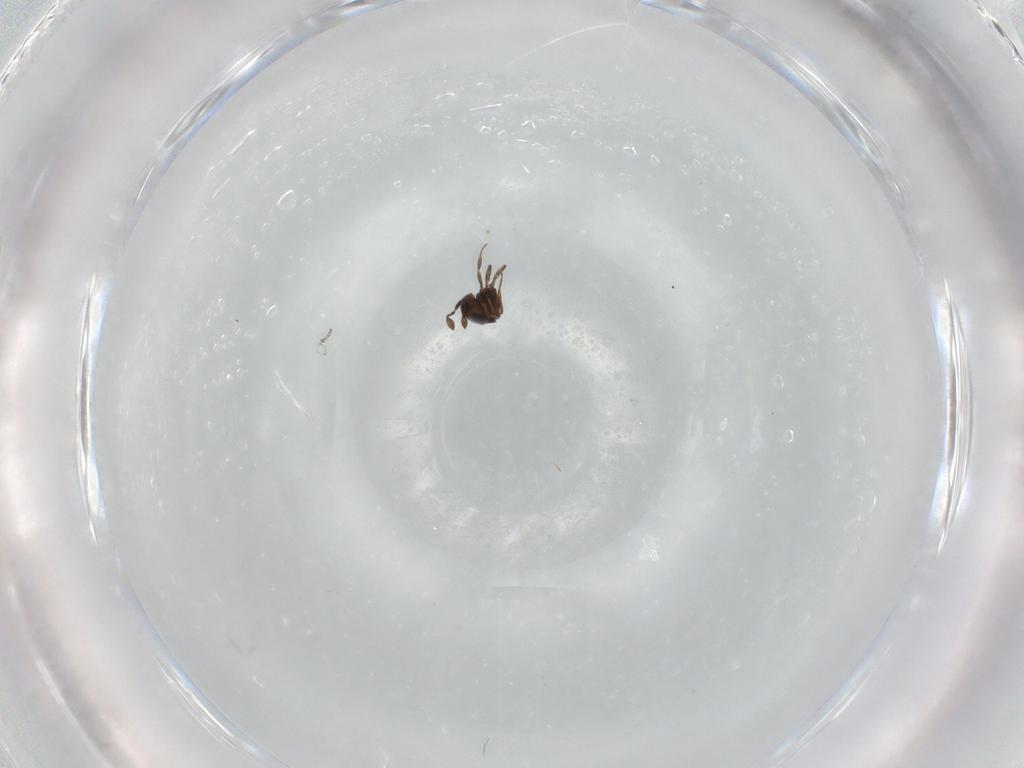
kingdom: Animalia
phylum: Arthropoda
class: Insecta
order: Hymenoptera
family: Scelionidae
